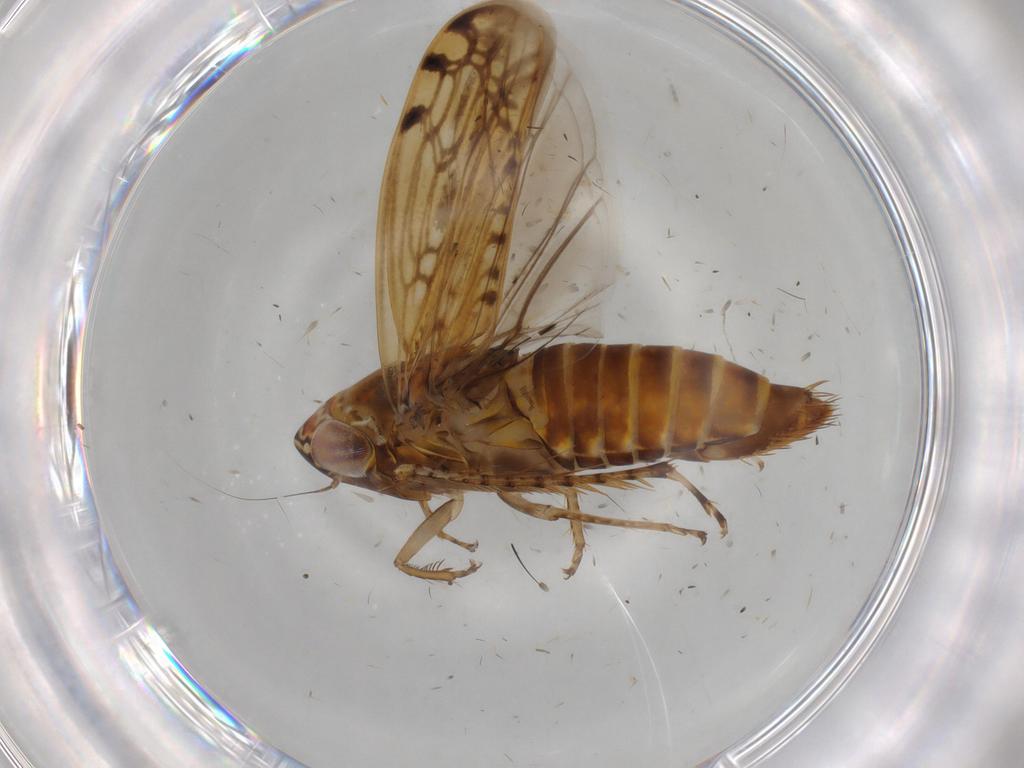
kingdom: Animalia
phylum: Arthropoda
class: Insecta
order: Hemiptera
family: Cicadellidae
